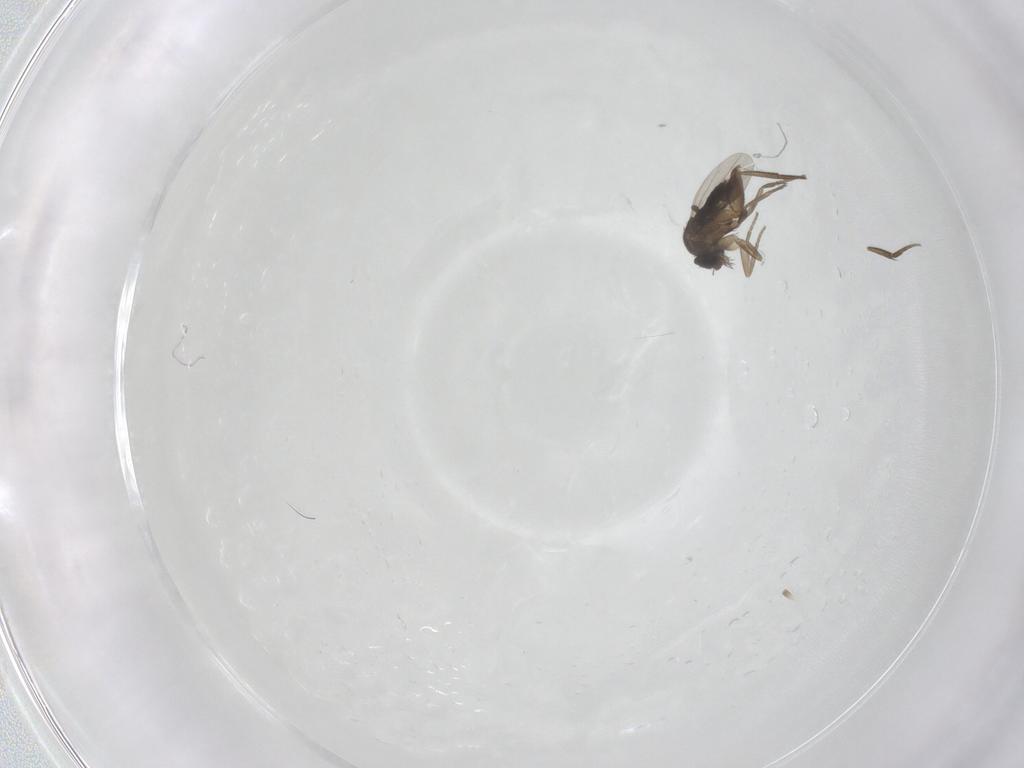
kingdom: Animalia
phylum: Arthropoda
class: Insecta
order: Diptera
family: Phoridae
